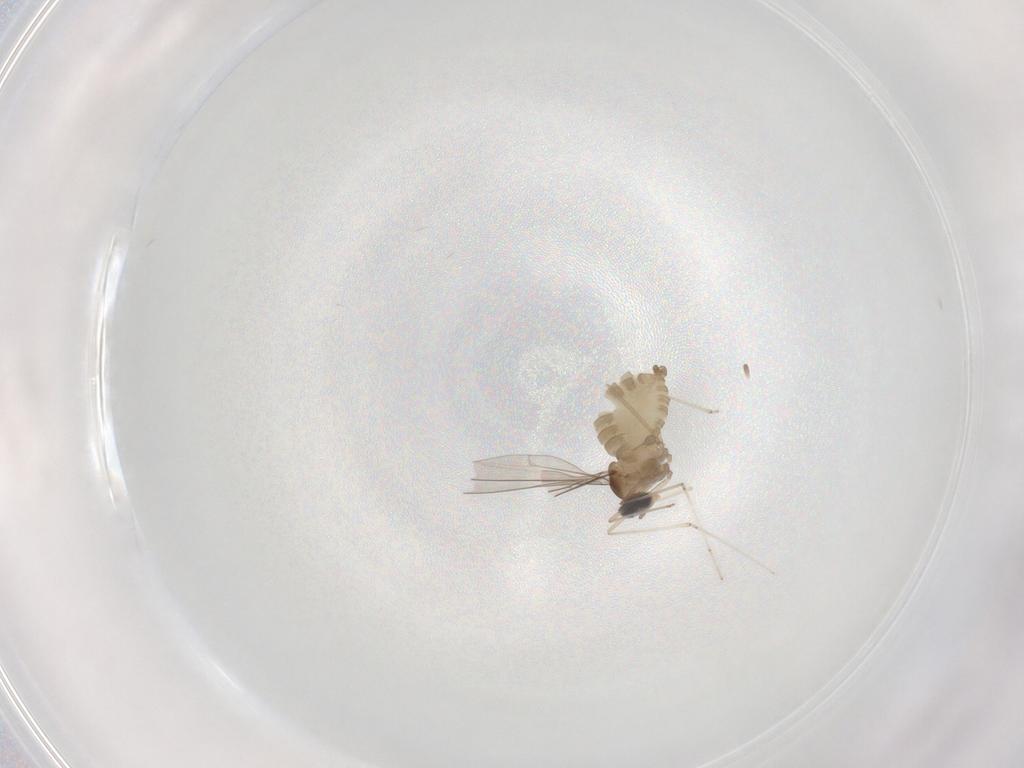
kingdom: Animalia
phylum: Arthropoda
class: Insecta
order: Diptera
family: Cecidomyiidae
